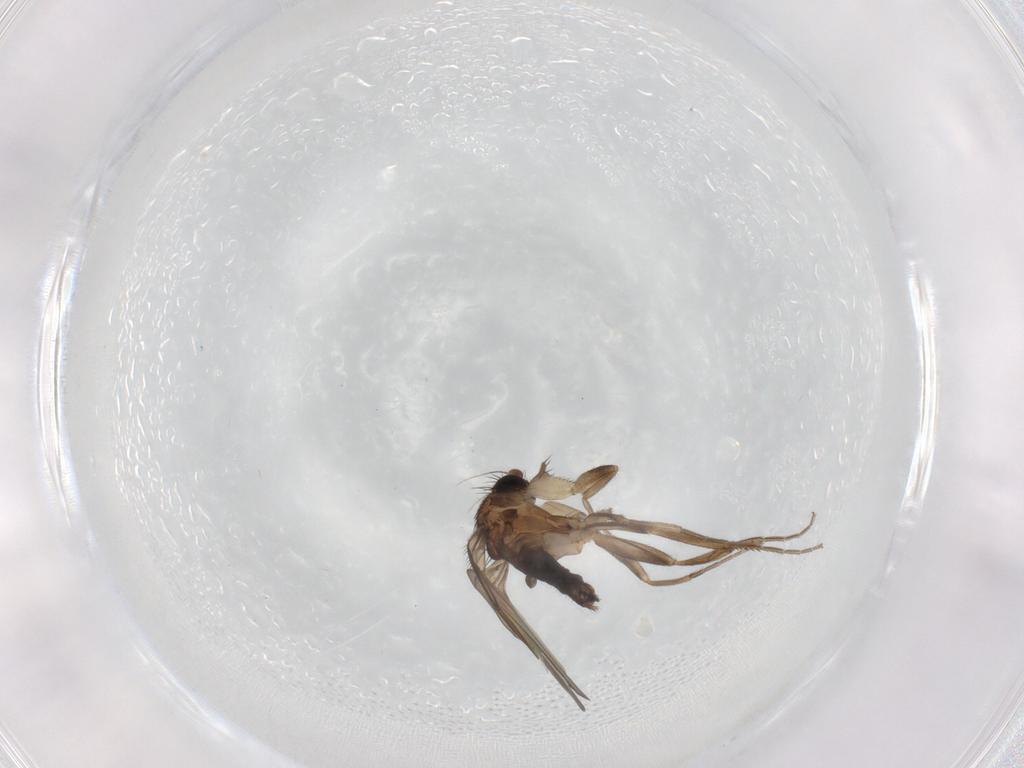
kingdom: Animalia
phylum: Arthropoda
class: Insecta
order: Diptera
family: Phoridae
